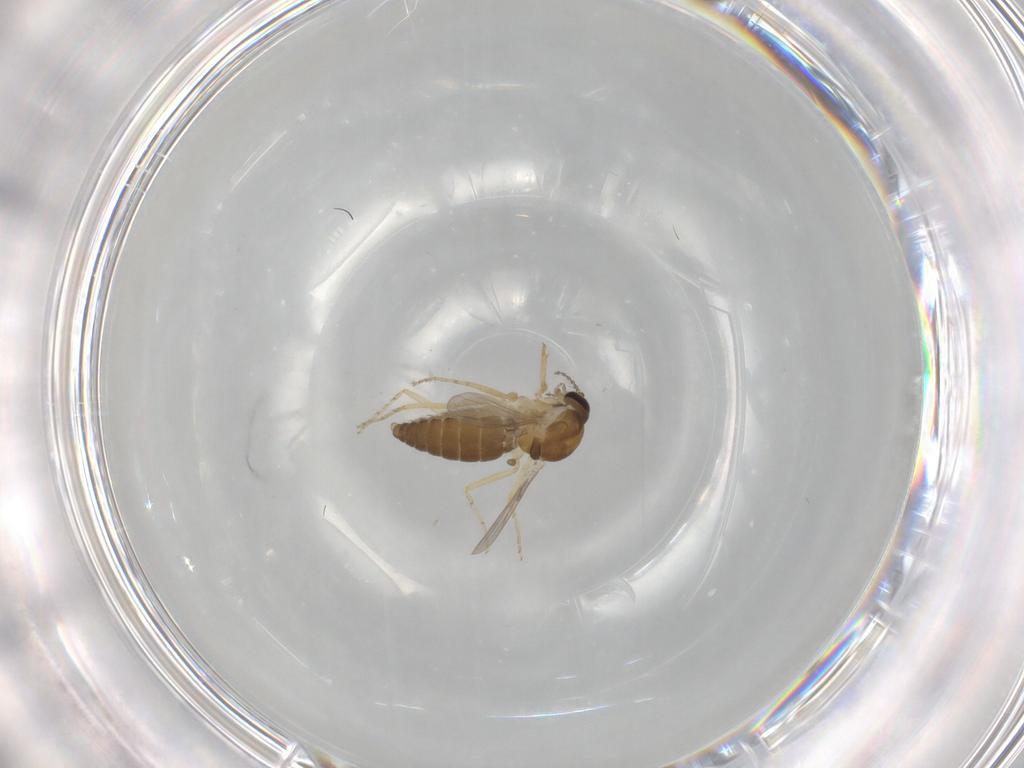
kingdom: Animalia
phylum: Arthropoda
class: Insecta
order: Diptera
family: Ceratopogonidae
